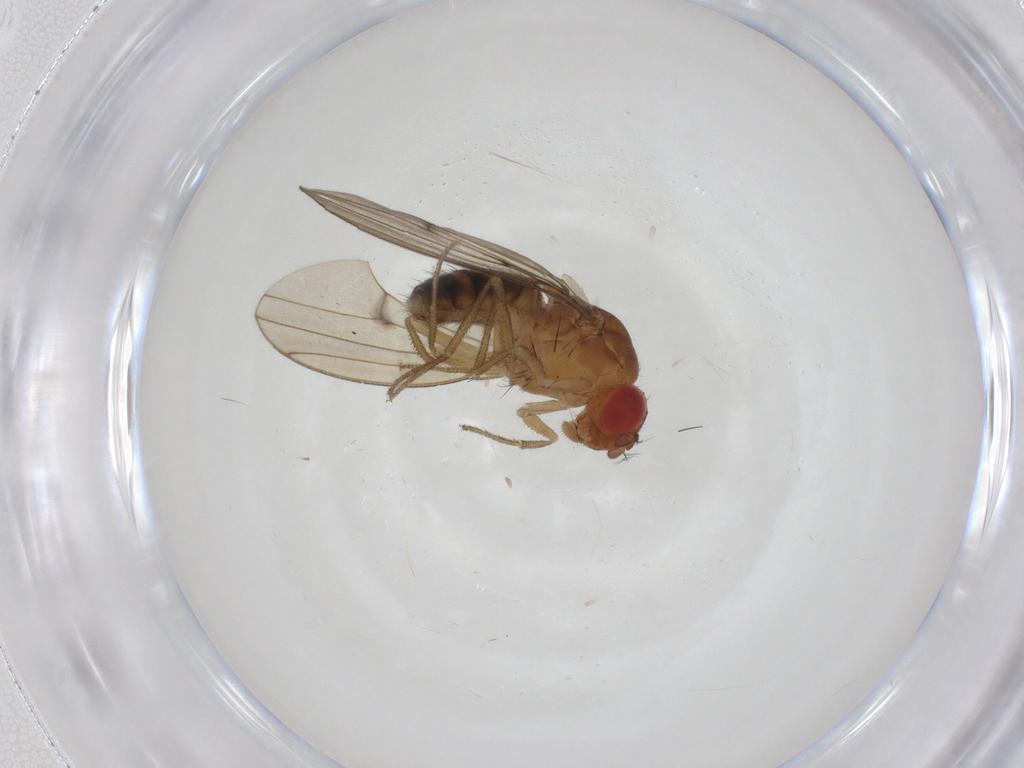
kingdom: Animalia
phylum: Arthropoda
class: Insecta
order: Diptera
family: Drosophilidae
